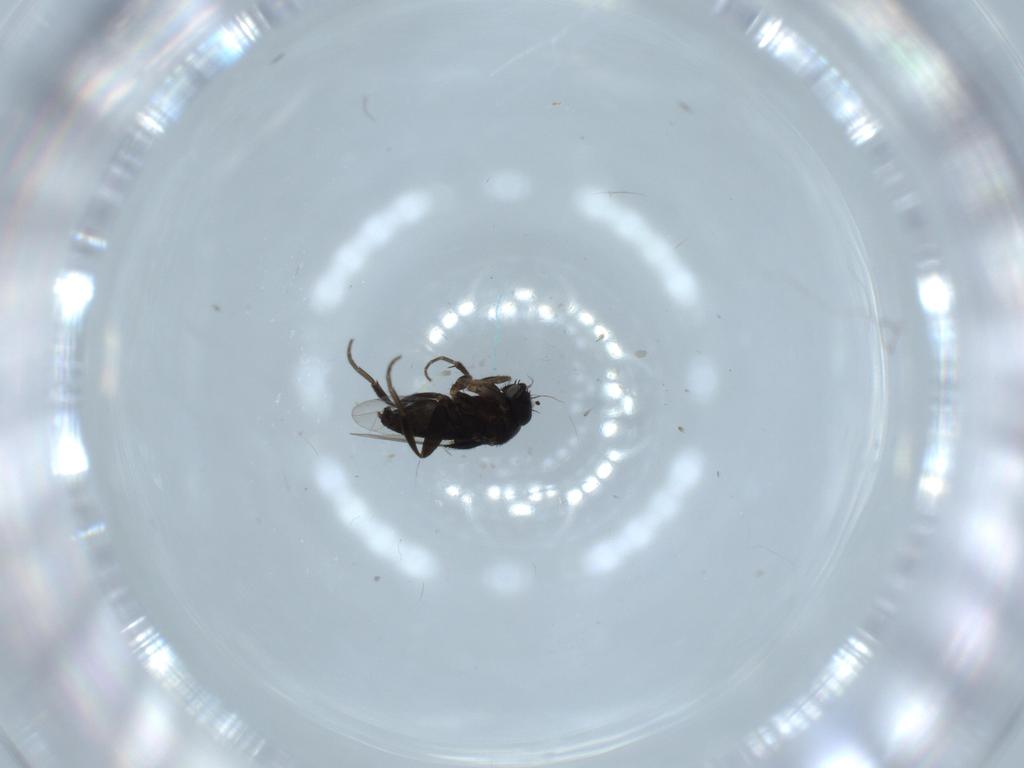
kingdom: Animalia
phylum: Arthropoda
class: Insecta
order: Diptera
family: Phoridae
